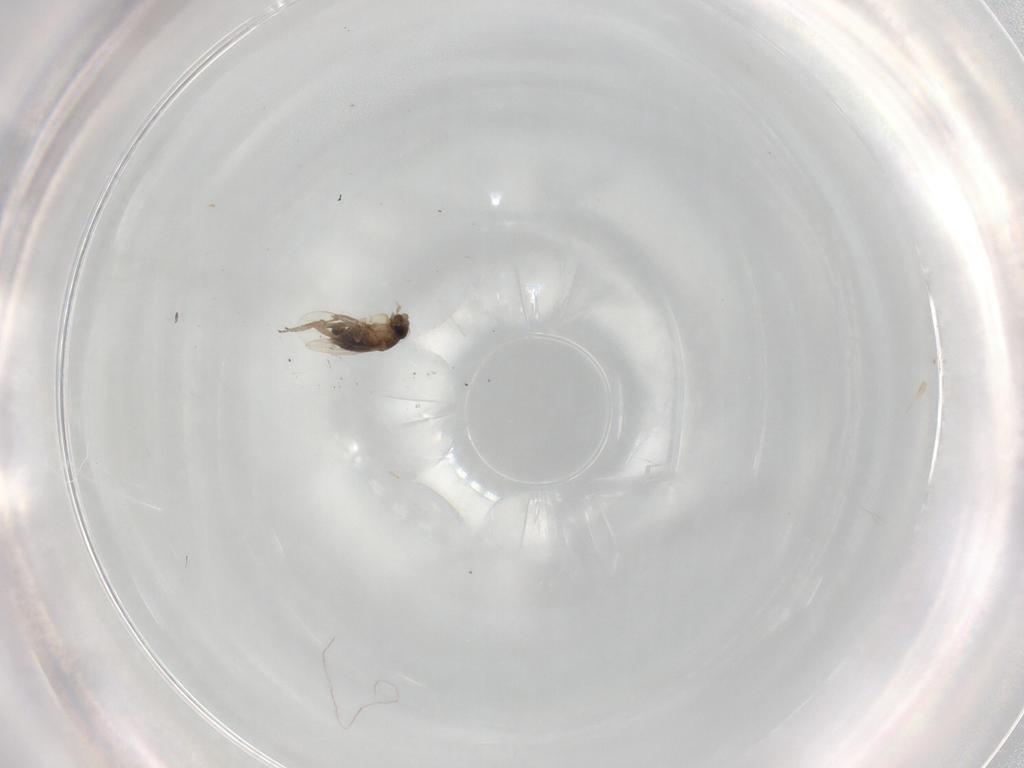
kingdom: Animalia
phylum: Arthropoda
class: Insecta
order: Diptera
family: Phoridae
